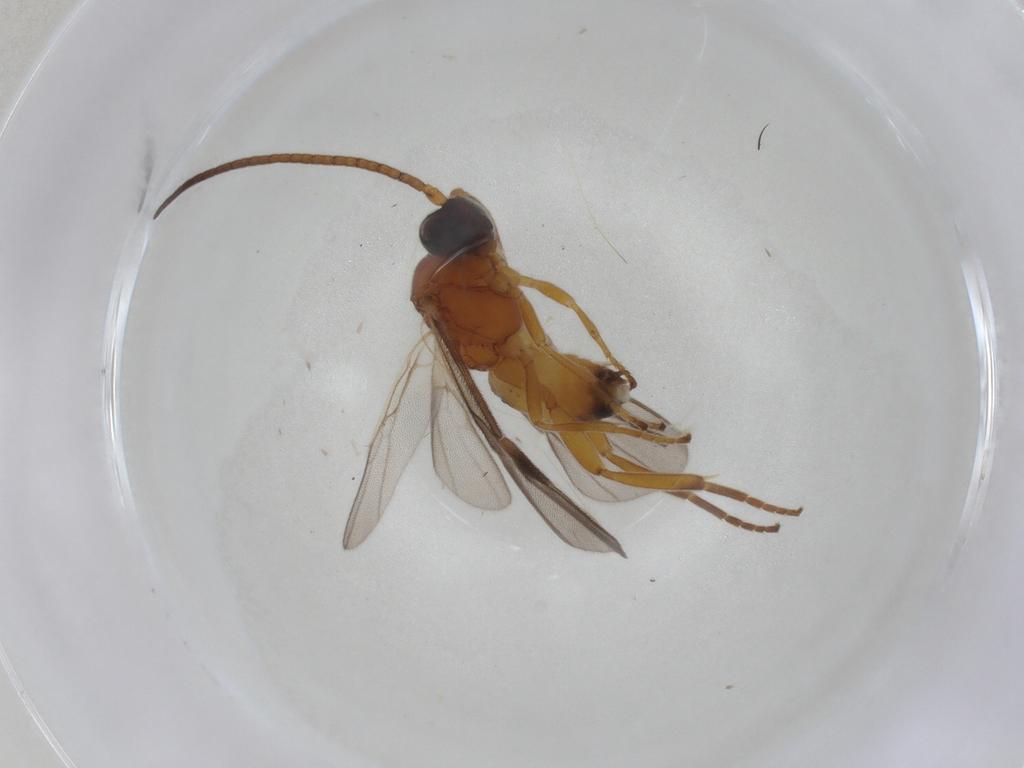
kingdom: Animalia
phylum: Arthropoda
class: Insecta
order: Hymenoptera
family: Braconidae
